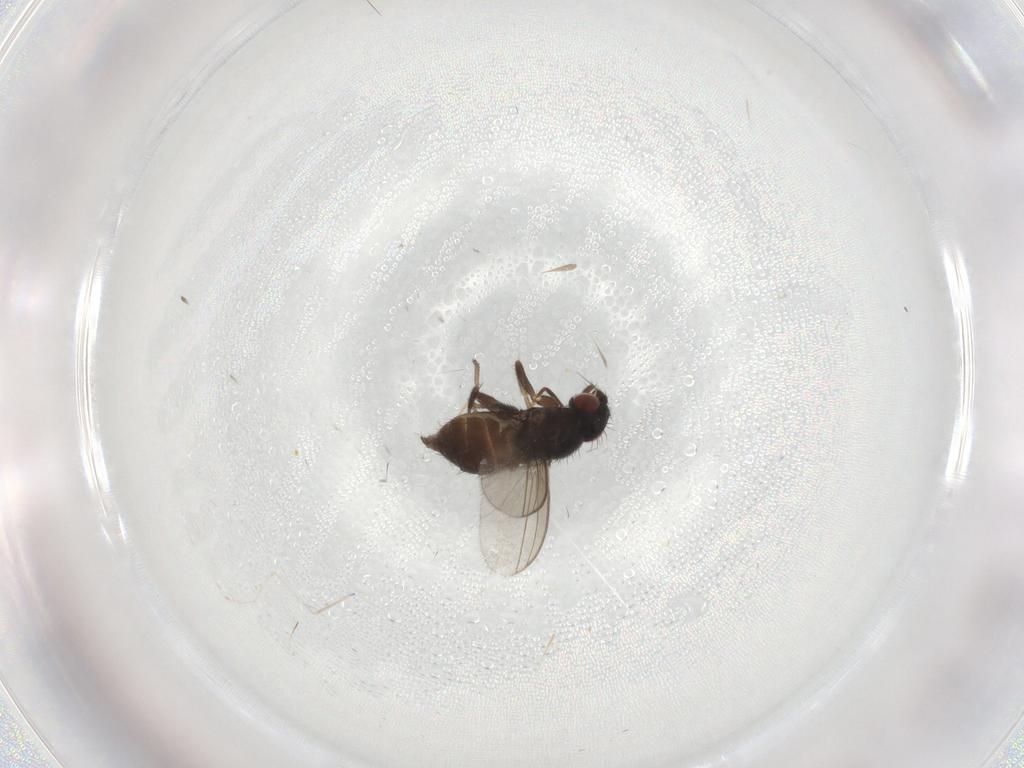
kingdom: Animalia
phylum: Arthropoda
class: Insecta
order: Diptera
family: Milichiidae
